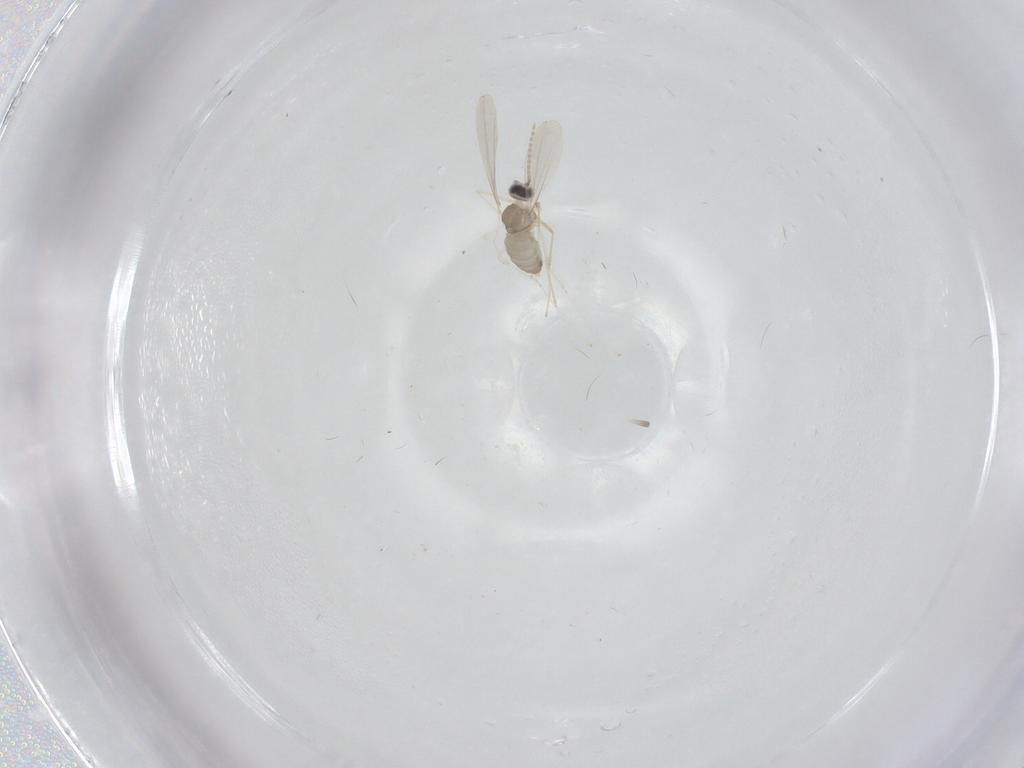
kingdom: Animalia
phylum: Arthropoda
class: Insecta
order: Diptera
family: Cecidomyiidae
